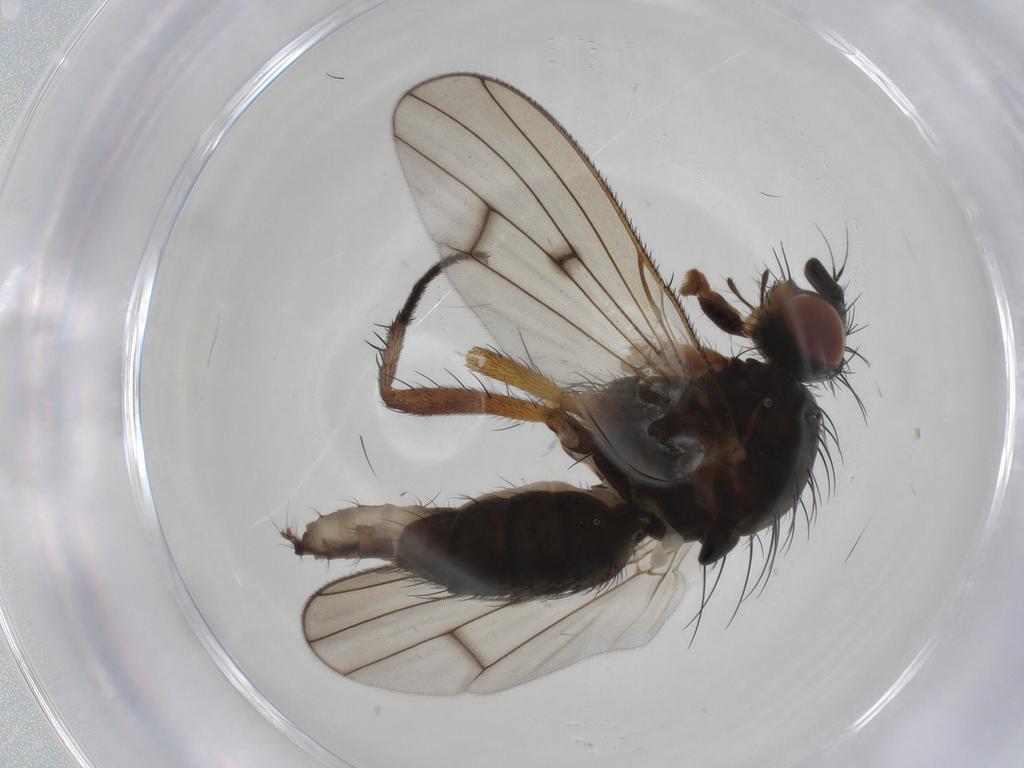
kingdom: Animalia
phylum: Arthropoda
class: Insecta
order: Diptera
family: Anthomyiidae
